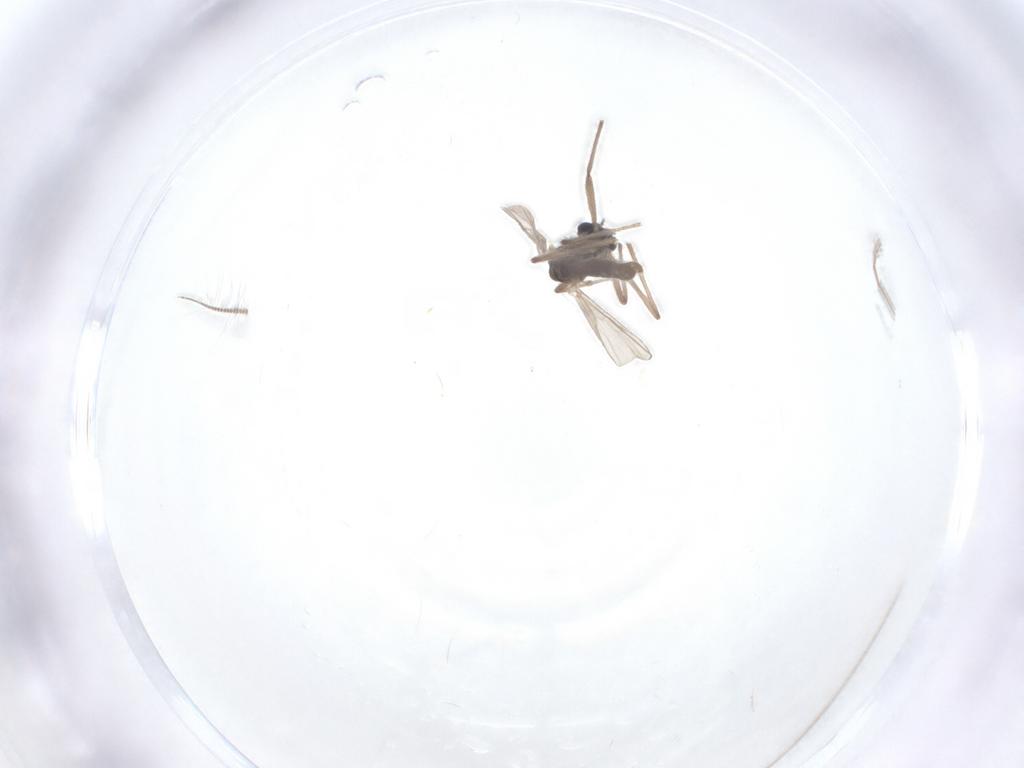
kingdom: Animalia
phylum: Arthropoda
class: Insecta
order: Diptera
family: Chironomidae
